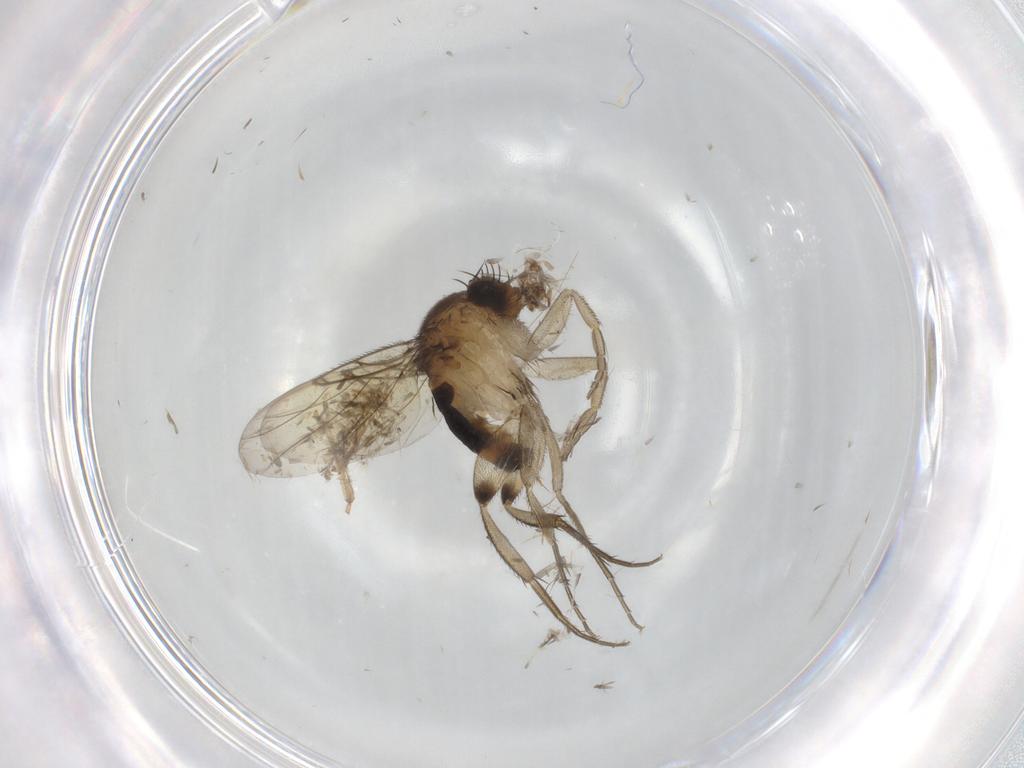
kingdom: Animalia
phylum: Arthropoda
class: Insecta
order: Diptera
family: Cecidomyiidae
